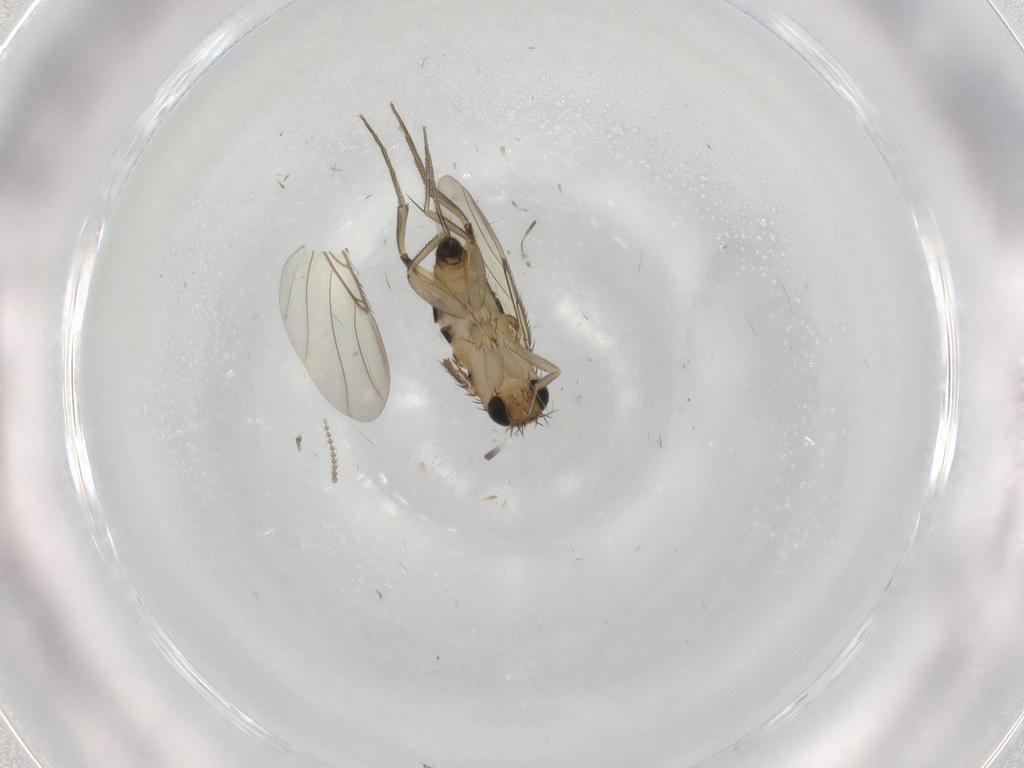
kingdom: Animalia
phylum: Arthropoda
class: Insecta
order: Diptera
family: Phoridae
